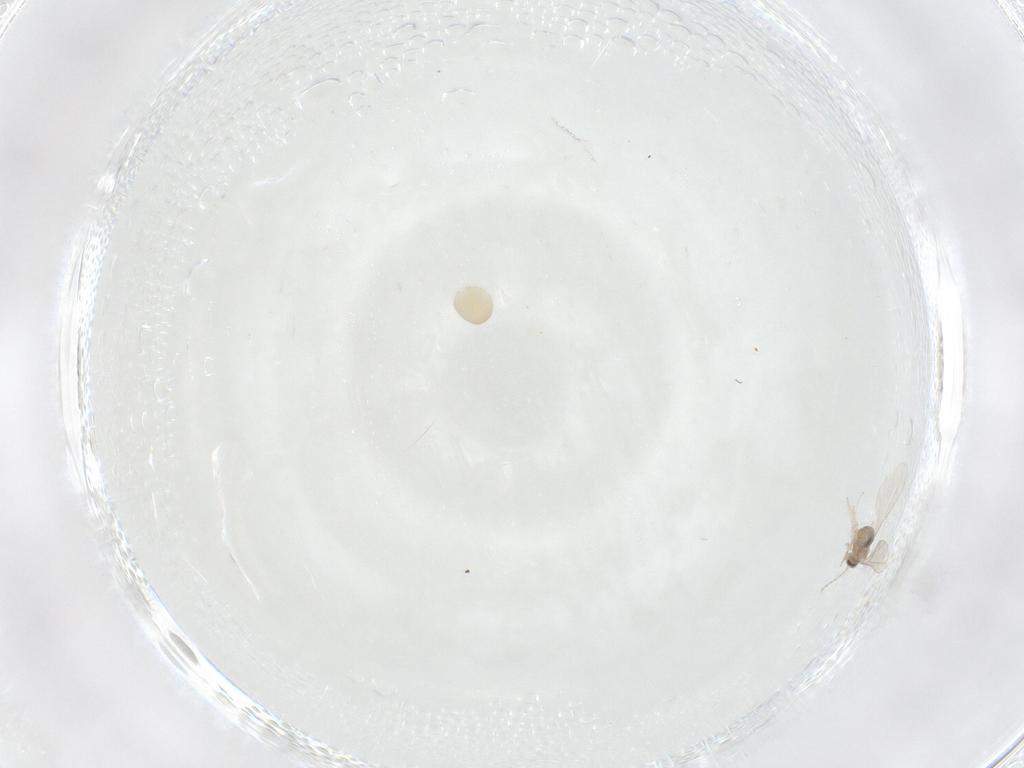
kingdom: Animalia
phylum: Arthropoda
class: Insecta
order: Diptera
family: Cecidomyiidae
